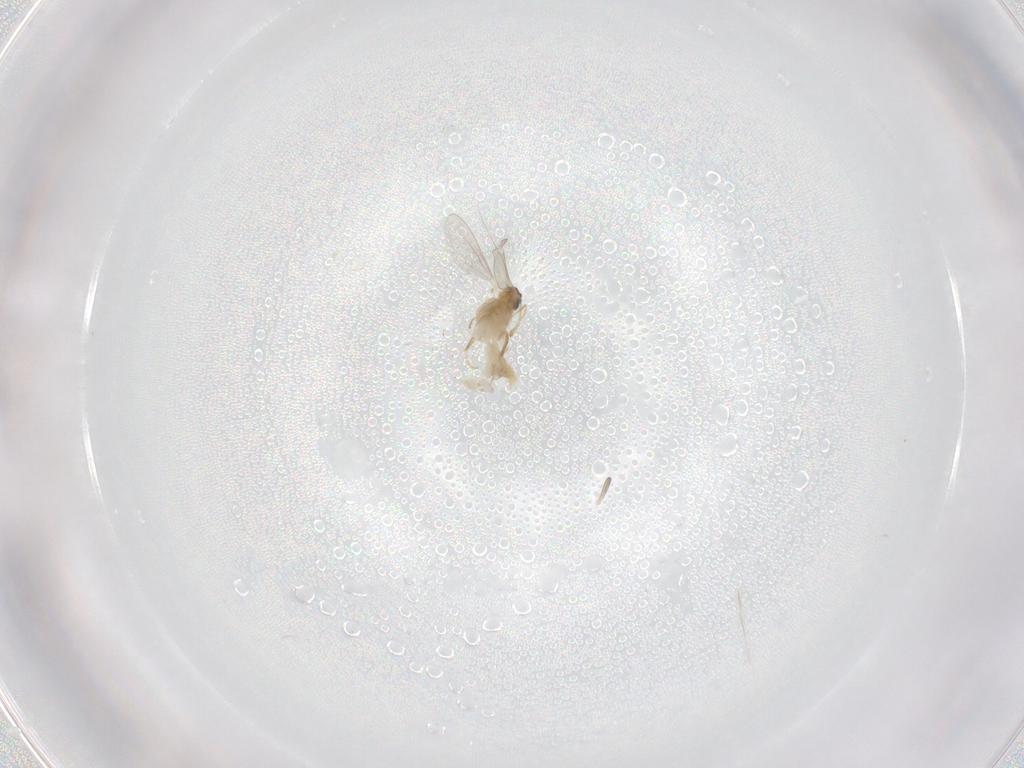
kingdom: Animalia
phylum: Arthropoda
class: Insecta
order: Diptera
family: Cecidomyiidae
